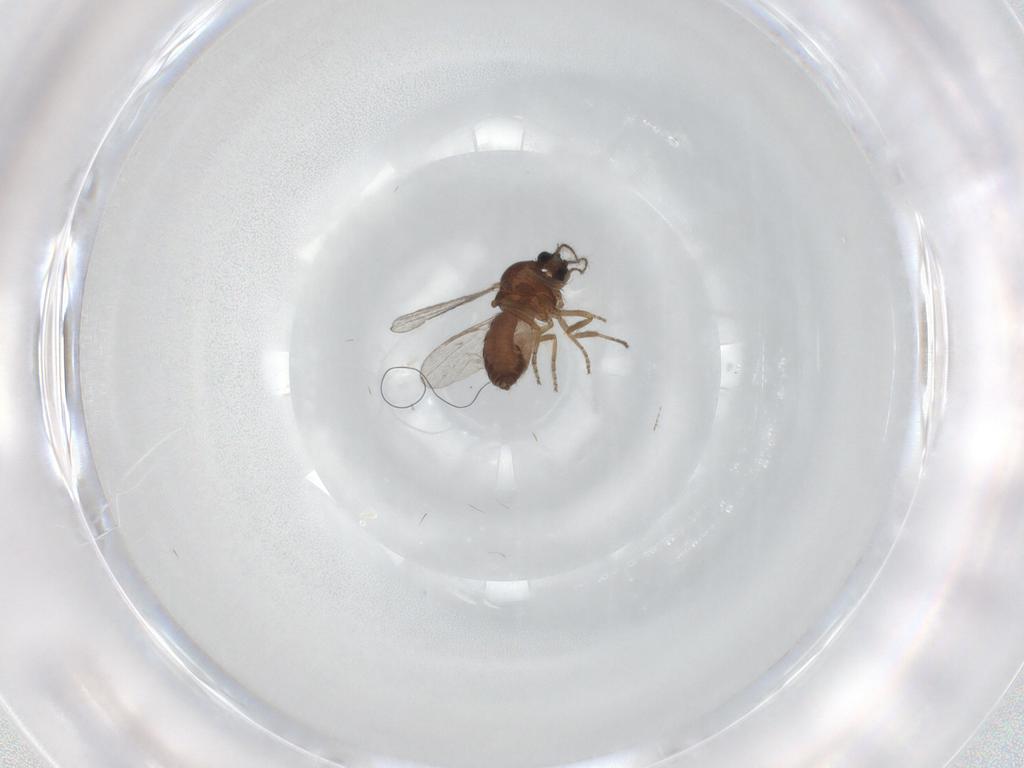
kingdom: Animalia
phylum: Arthropoda
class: Insecta
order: Diptera
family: Ceratopogonidae
